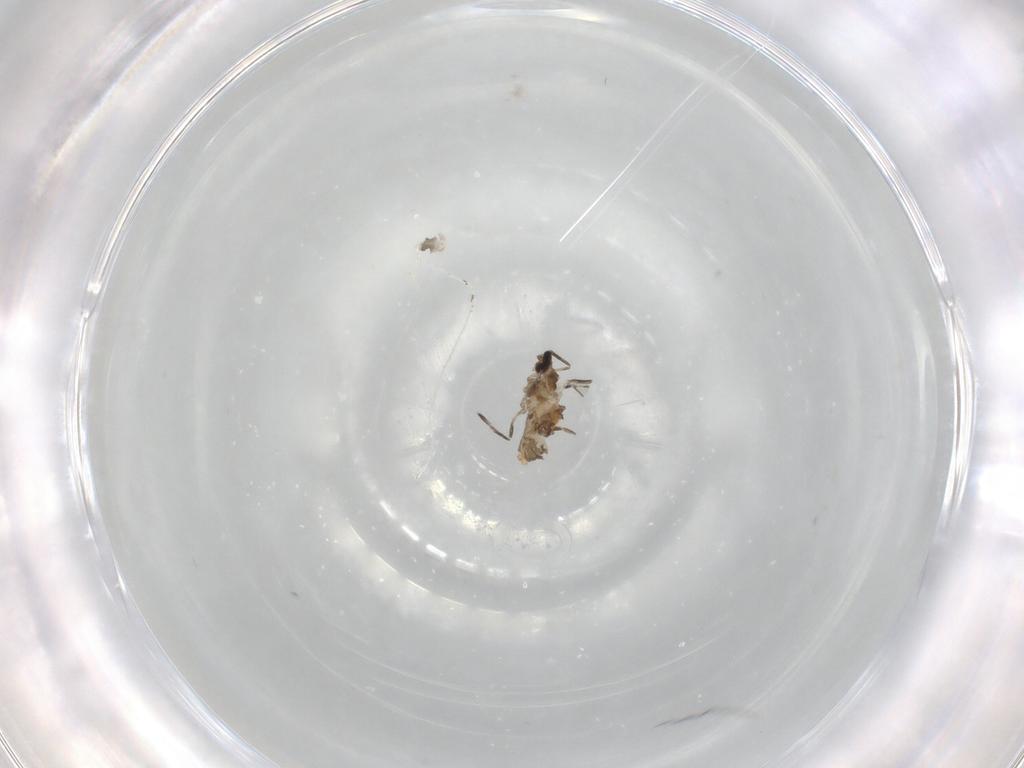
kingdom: Animalia
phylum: Arthropoda
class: Insecta
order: Diptera
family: Cecidomyiidae
